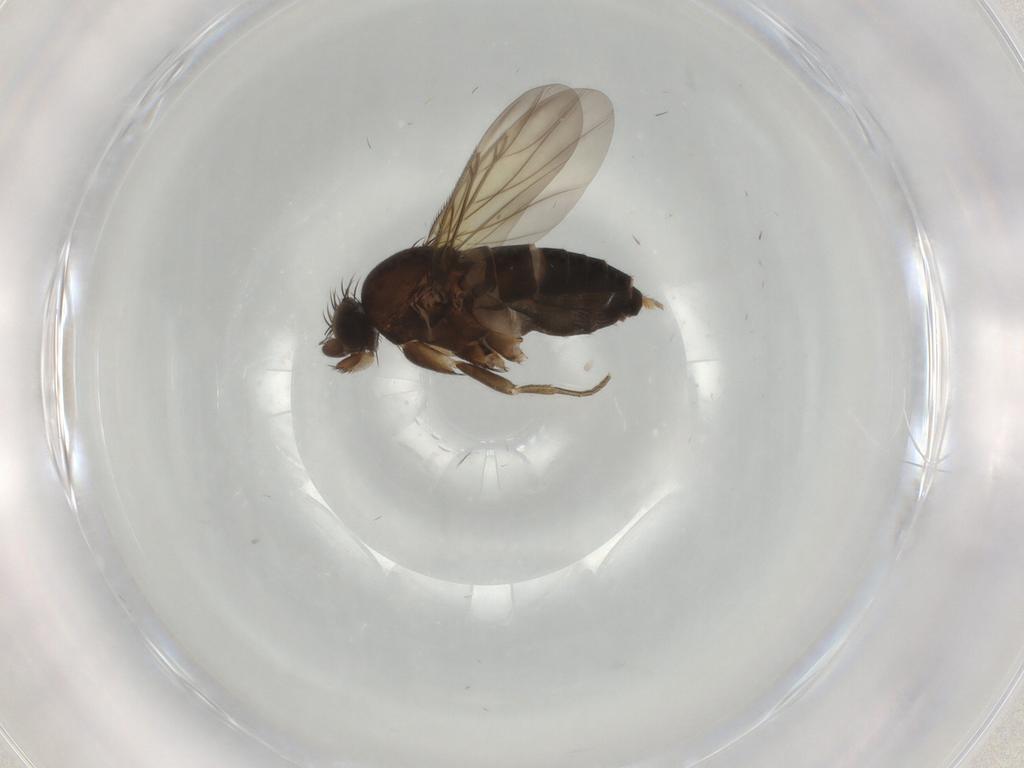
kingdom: Animalia
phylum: Arthropoda
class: Insecta
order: Diptera
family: Phoridae
